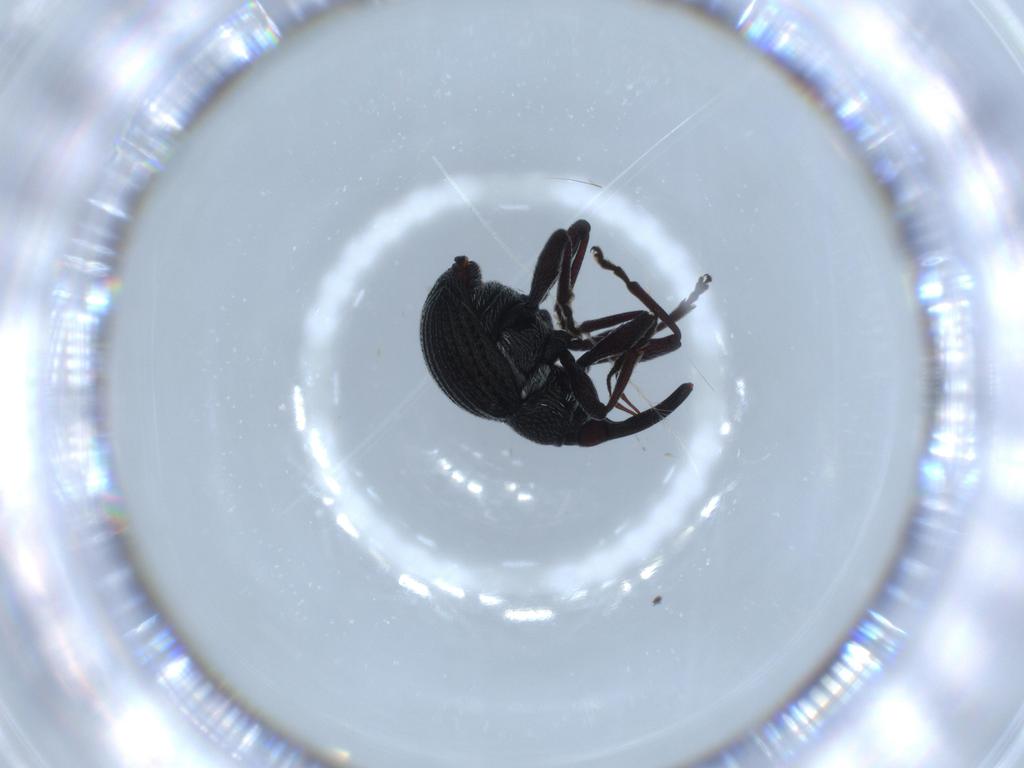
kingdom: Animalia
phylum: Arthropoda
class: Insecta
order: Coleoptera
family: Brentidae
